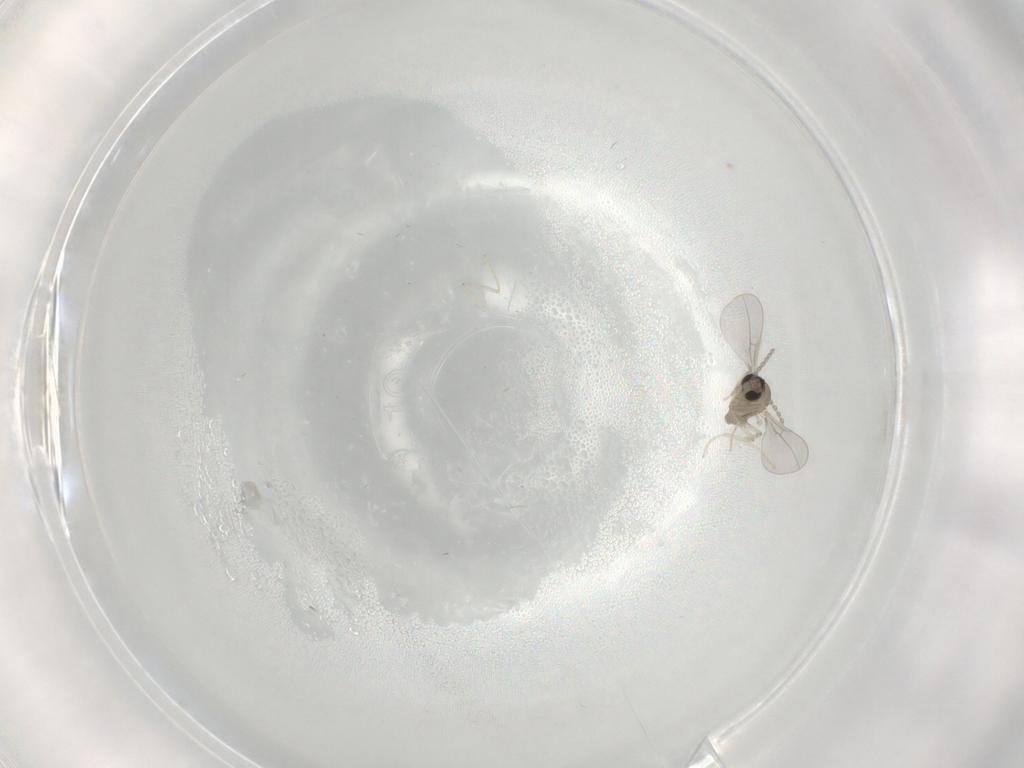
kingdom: Animalia
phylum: Arthropoda
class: Insecta
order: Diptera
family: Cecidomyiidae
